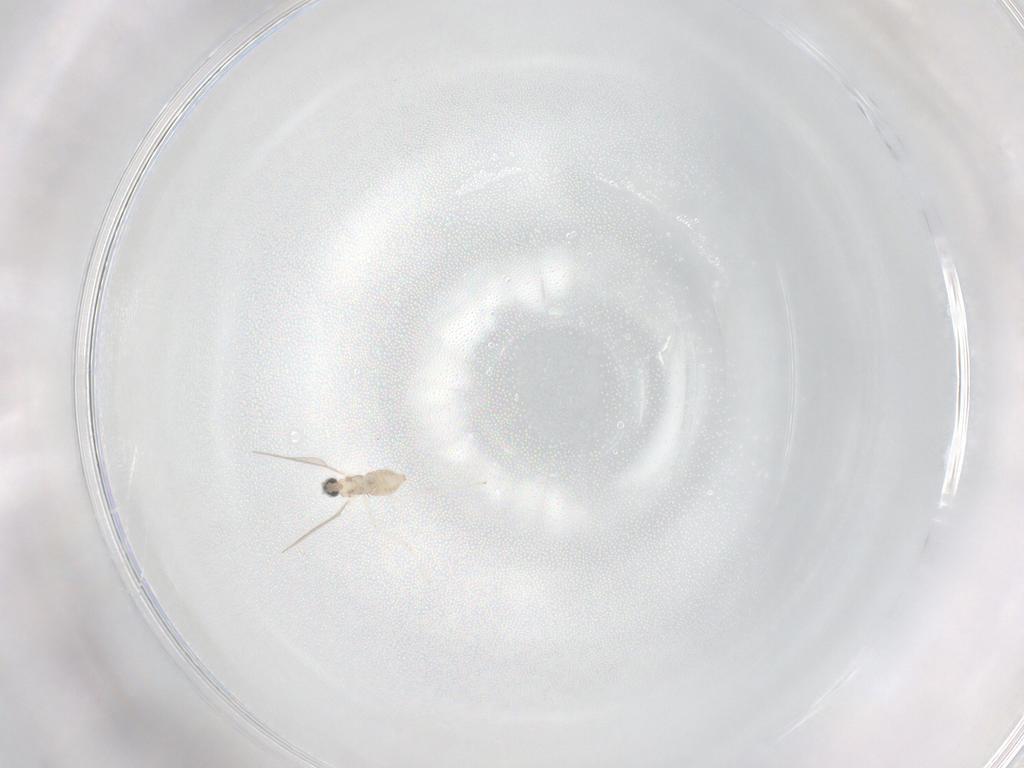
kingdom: Animalia
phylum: Arthropoda
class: Insecta
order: Diptera
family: Cecidomyiidae
